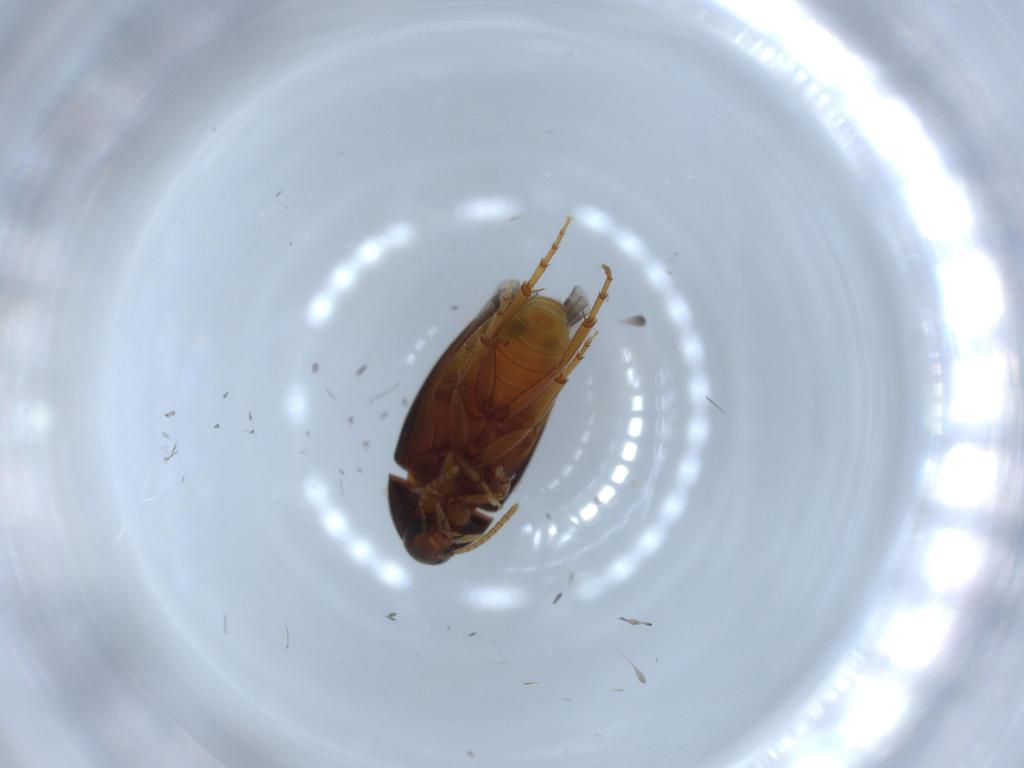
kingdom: Animalia
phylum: Arthropoda
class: Insecta
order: Coleoptera
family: Scraptiidae
